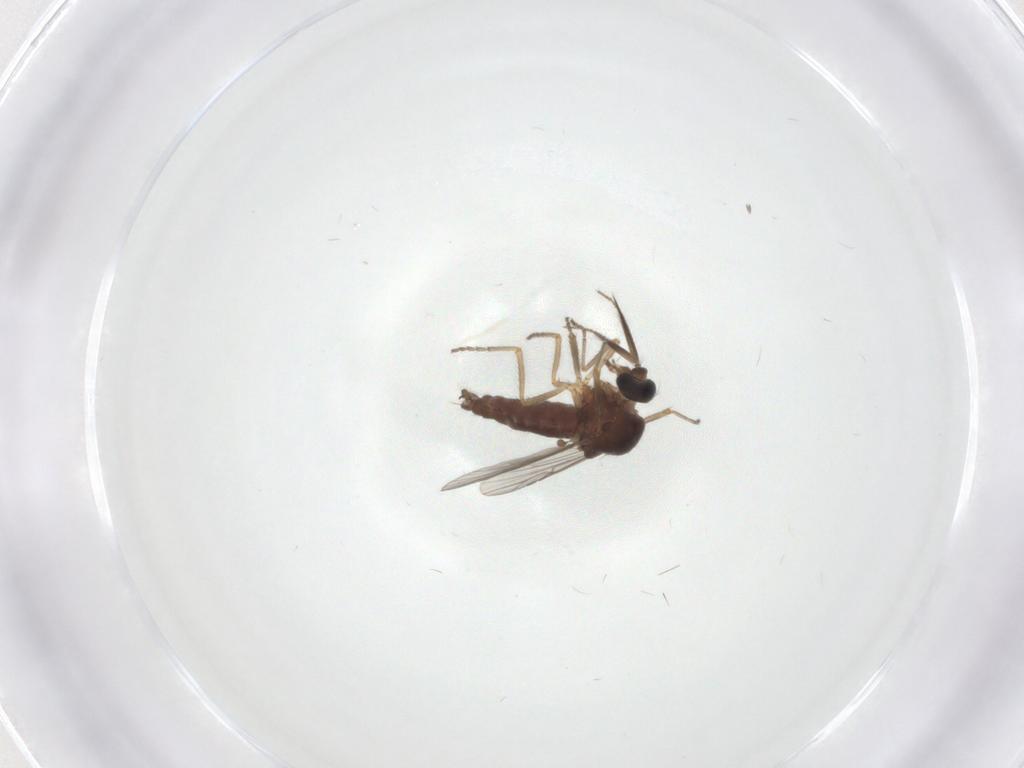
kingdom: Animalia
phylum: Arthropoda
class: Insecta
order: Diptera
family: Ceratopogonidae
